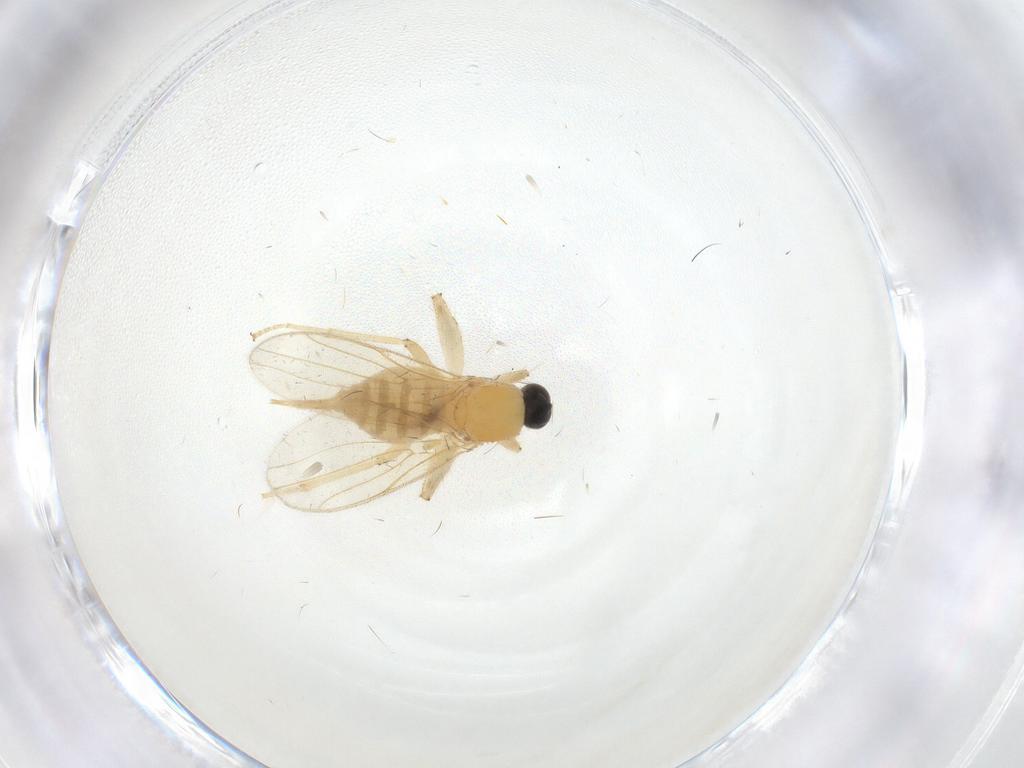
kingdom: Animalia
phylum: Arthropoda
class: Insecta
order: Diptera
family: Cecidomyiidae
